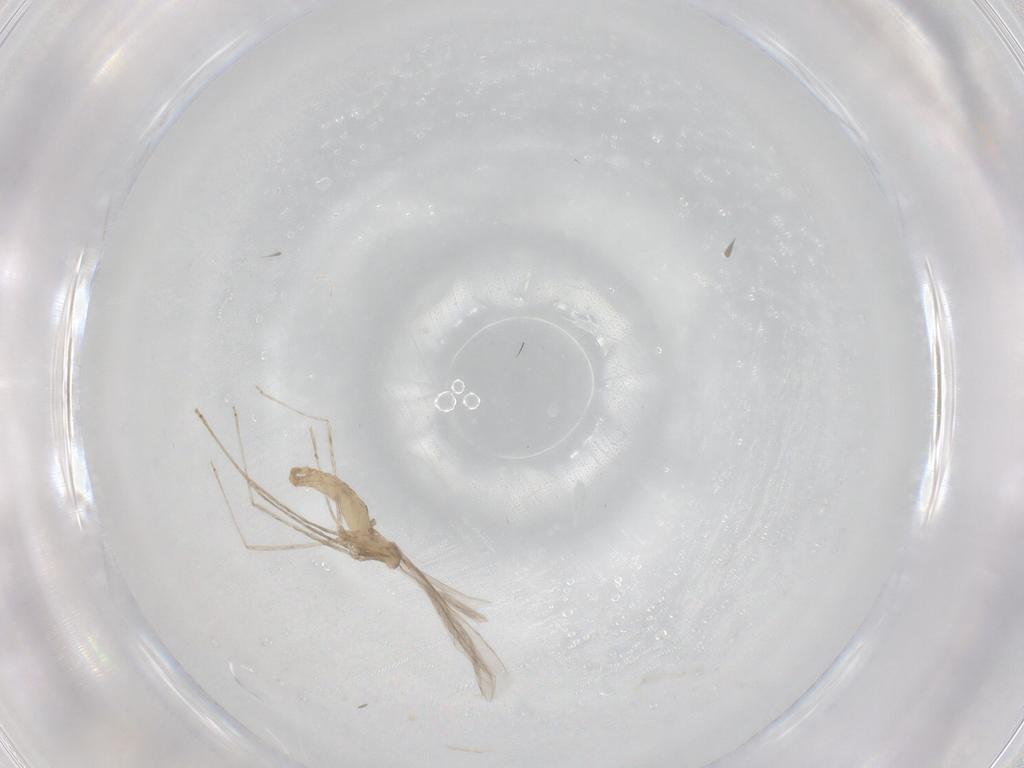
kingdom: Animalia
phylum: Arthropoda
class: Insecta
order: Diptera
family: Cecidomyiidae
